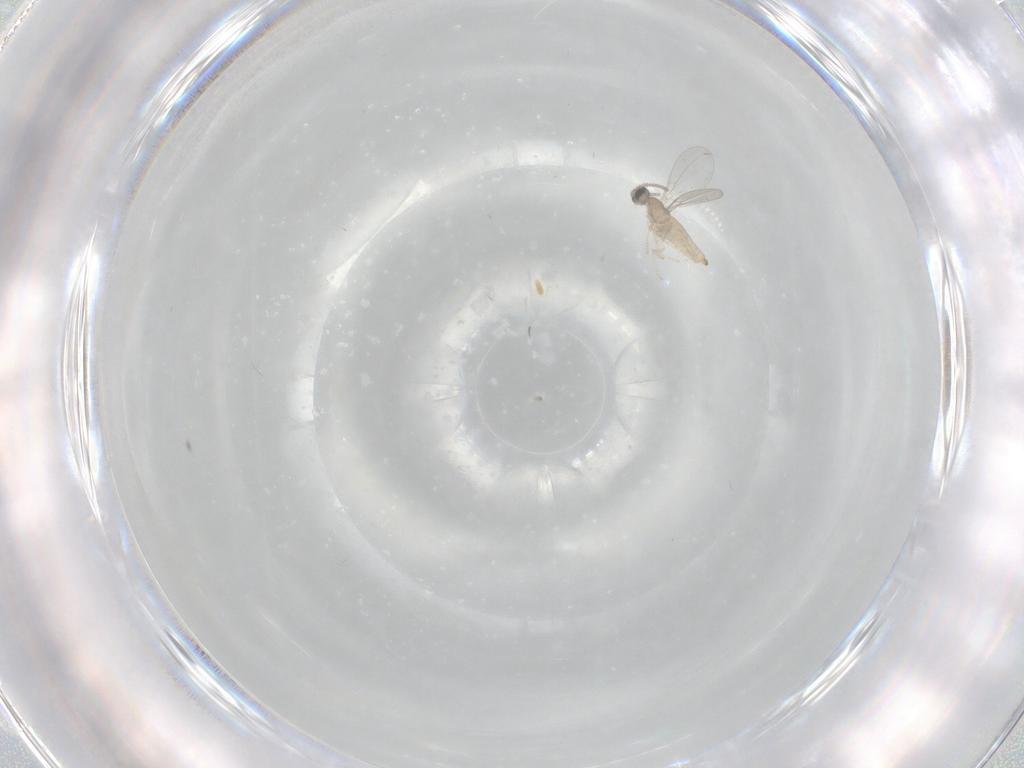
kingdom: Animalia
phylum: Arthropoda
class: Insecta
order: Diptera
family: Cecidomyiidae
